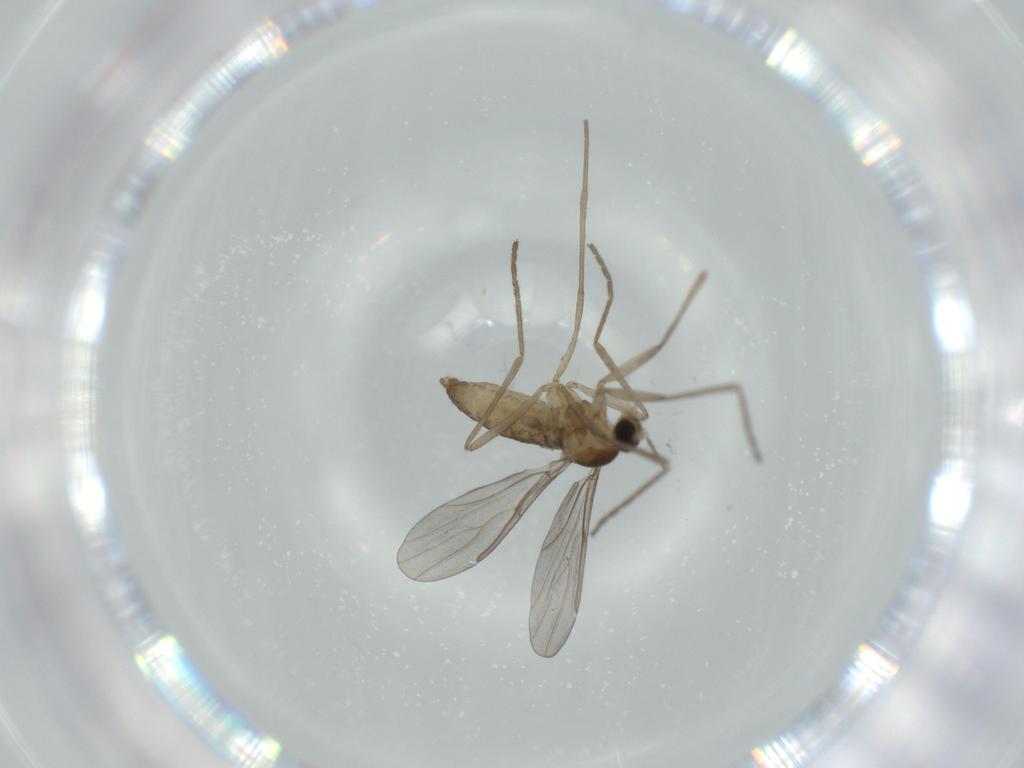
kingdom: Animalia
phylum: Arthropoda
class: Insecta
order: Diptera
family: Cecidomyiidae
